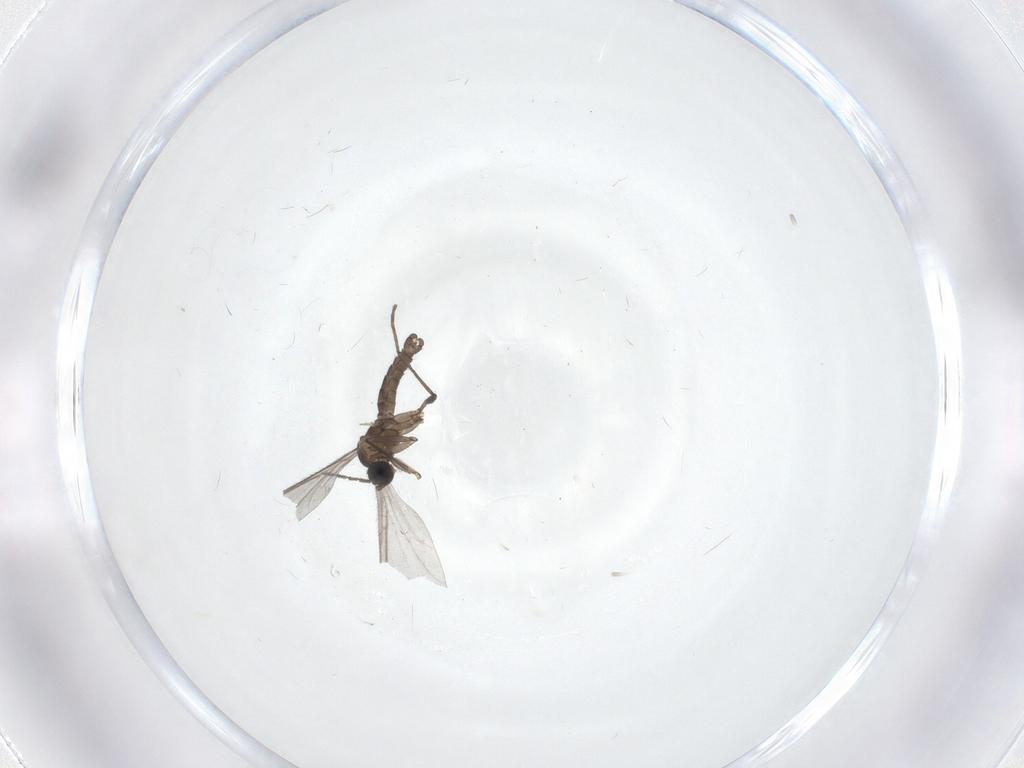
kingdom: Animalia
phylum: Arthropoda
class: Insecta
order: Diptera
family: Sciaridae
